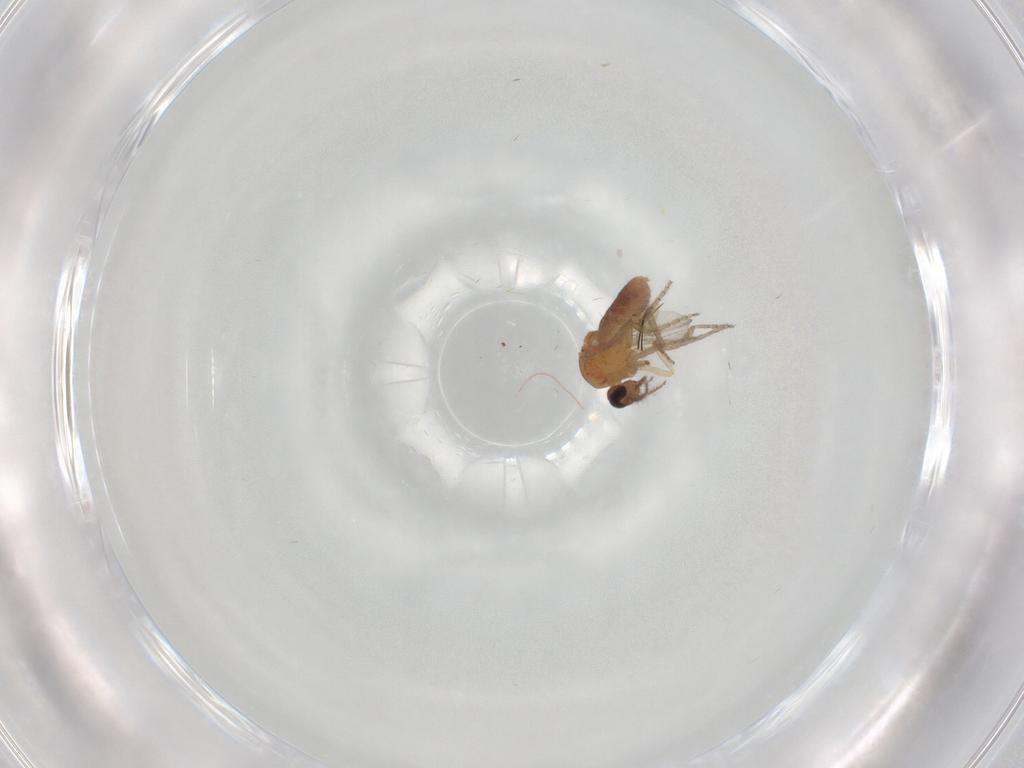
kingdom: Animalia
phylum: Arthropoda
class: Insecta
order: Diptera
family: Ceratopogonidae
